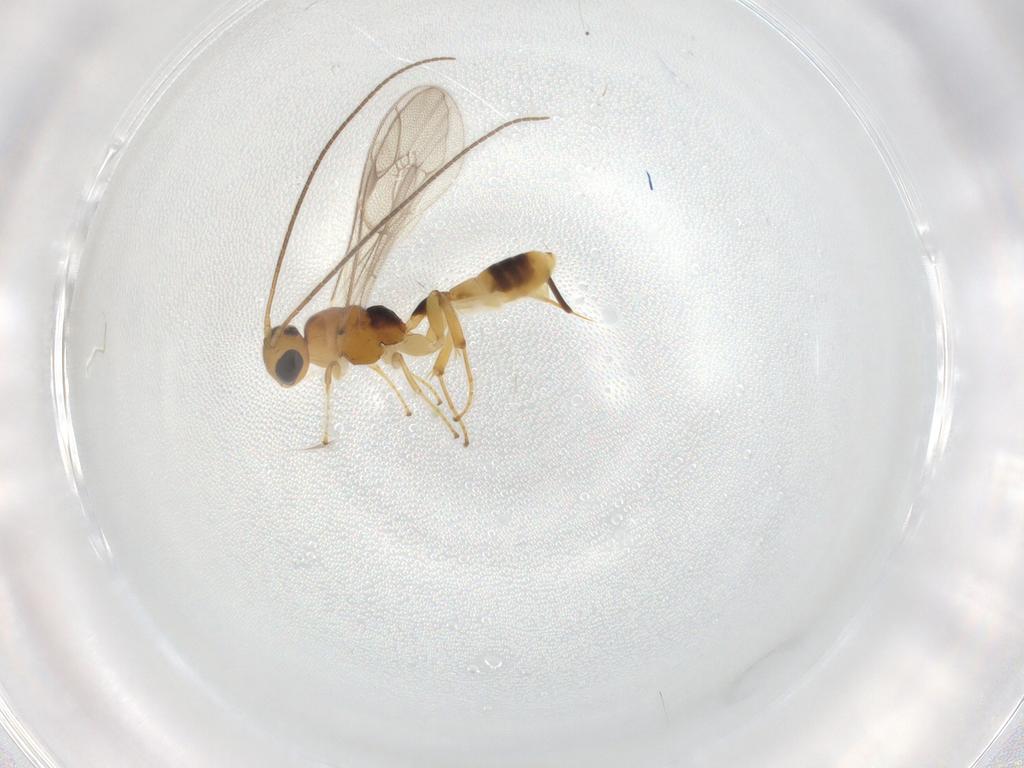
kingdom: Animalia
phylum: Arthropoda
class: Insecta
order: Hymenoptera
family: Ichneumonidae
